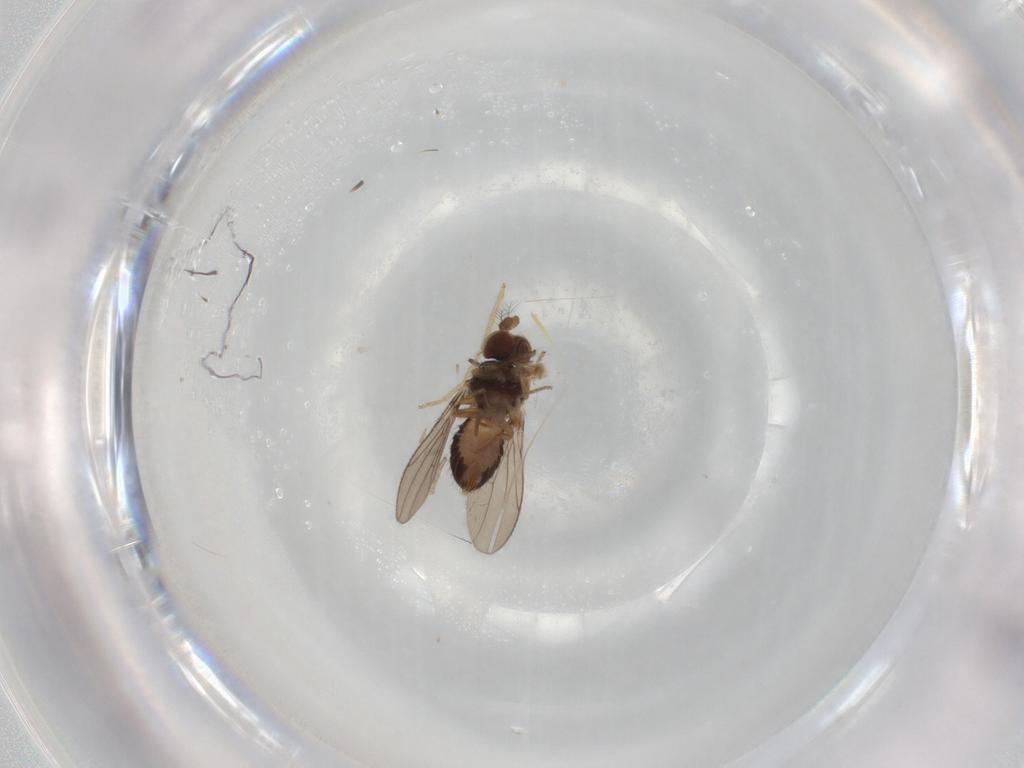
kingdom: Animalia
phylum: Arthropoda
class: Insecta
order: Diptera
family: Drosophilidae
